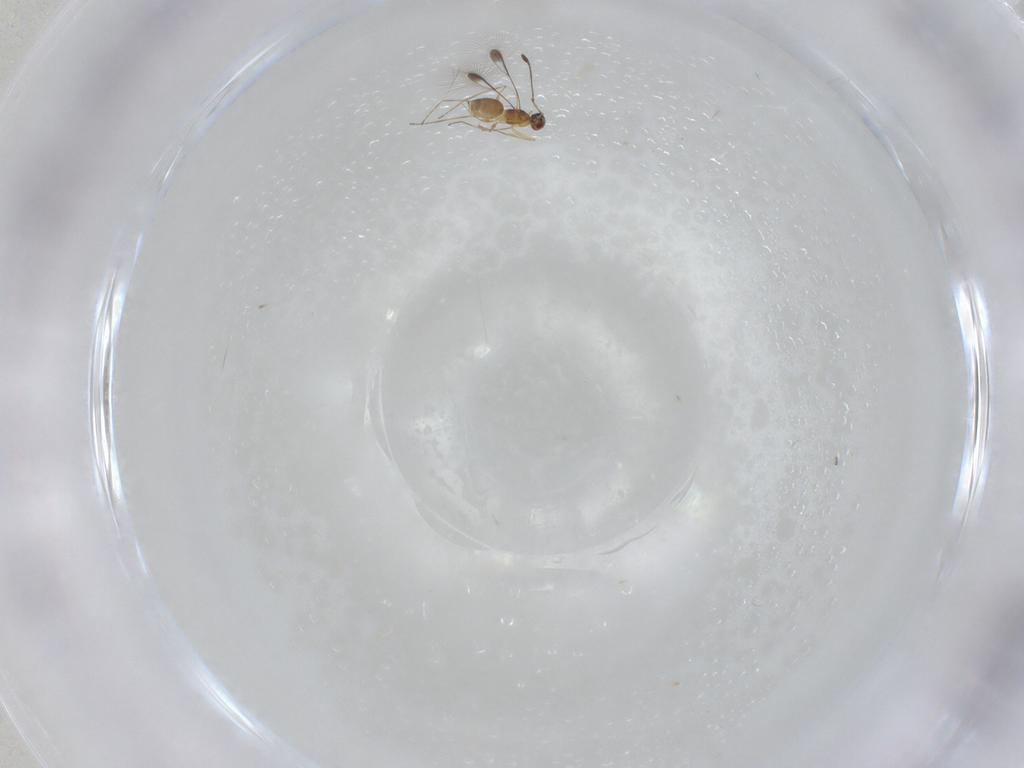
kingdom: Animalia
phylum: Arthropoda
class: Insecta
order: Hymenoptera
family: Mymaridae
